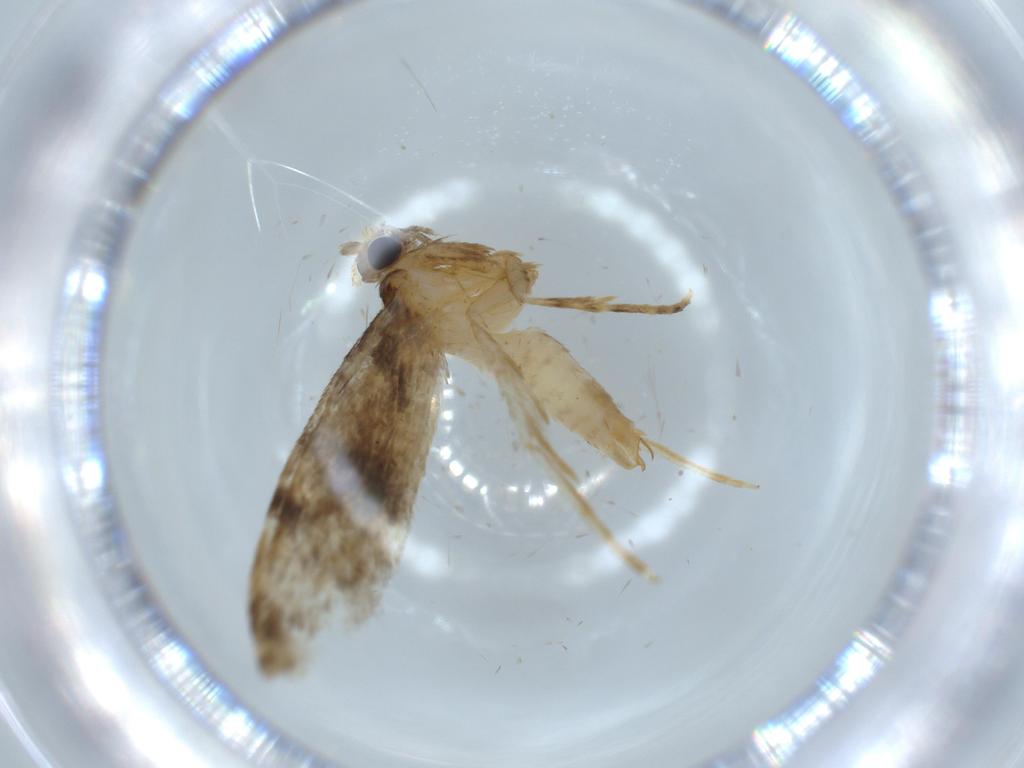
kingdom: Animalia
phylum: Arthropoda
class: Insecta
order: Lepidoptera
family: Tineidae
